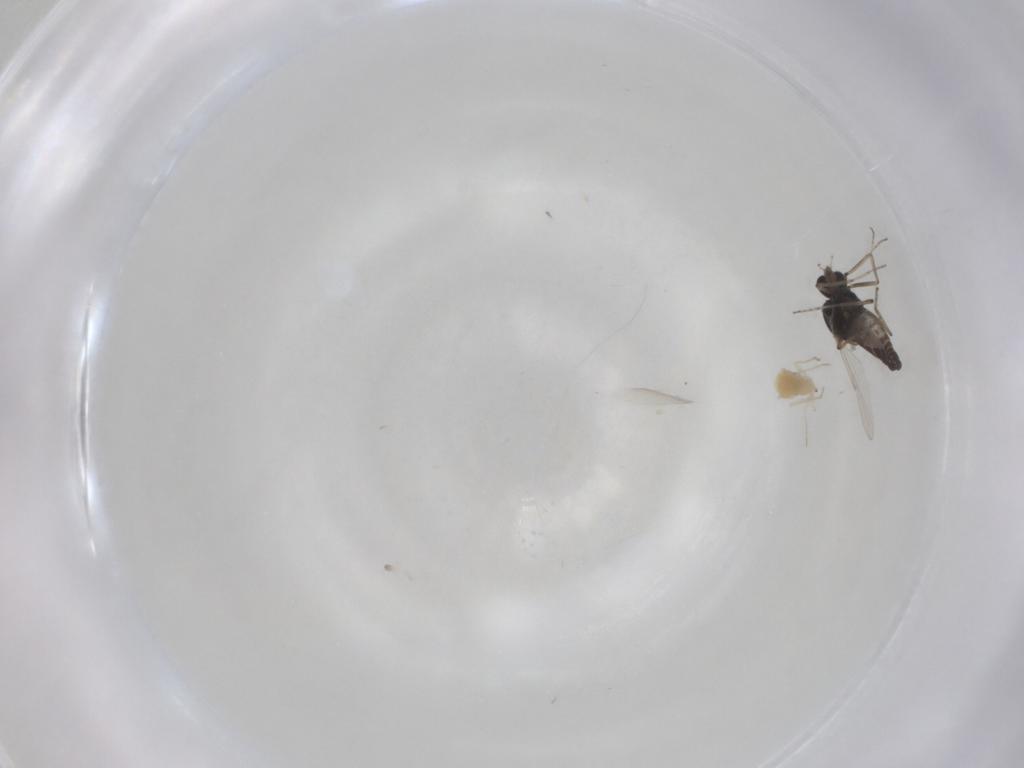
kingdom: Animalia
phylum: Arthropoda
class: Insecta
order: Diptera
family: Ceratopogonidae
